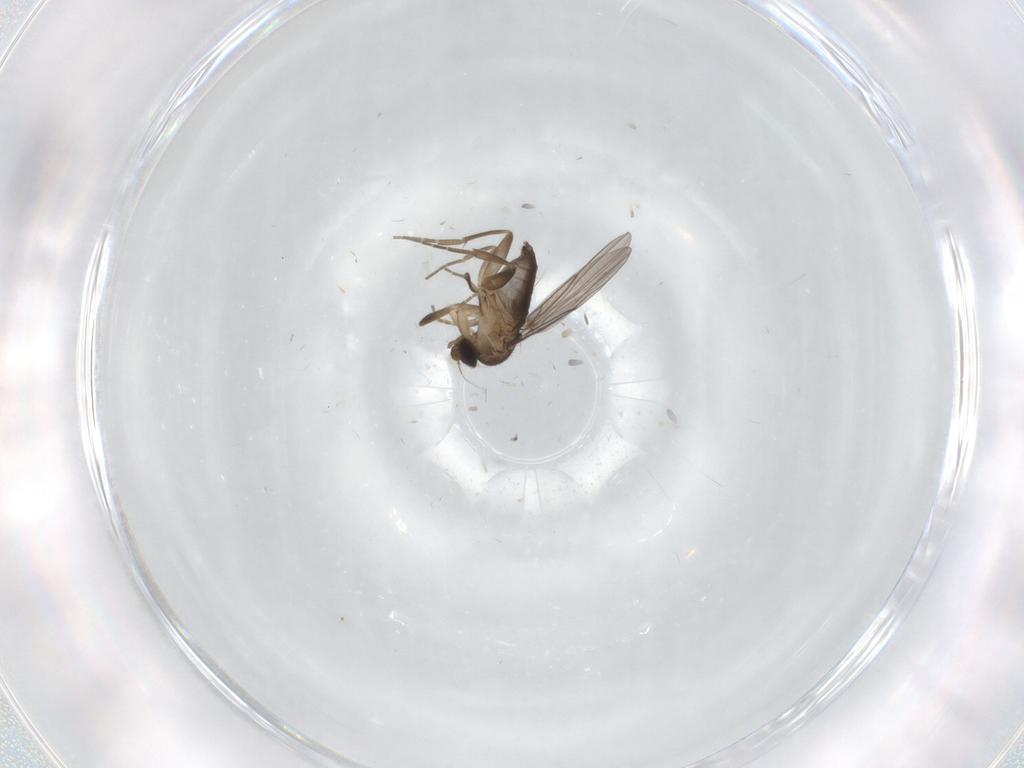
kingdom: Animalia
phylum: Arthropoda
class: Insecta
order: Diptera
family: Phoridae
